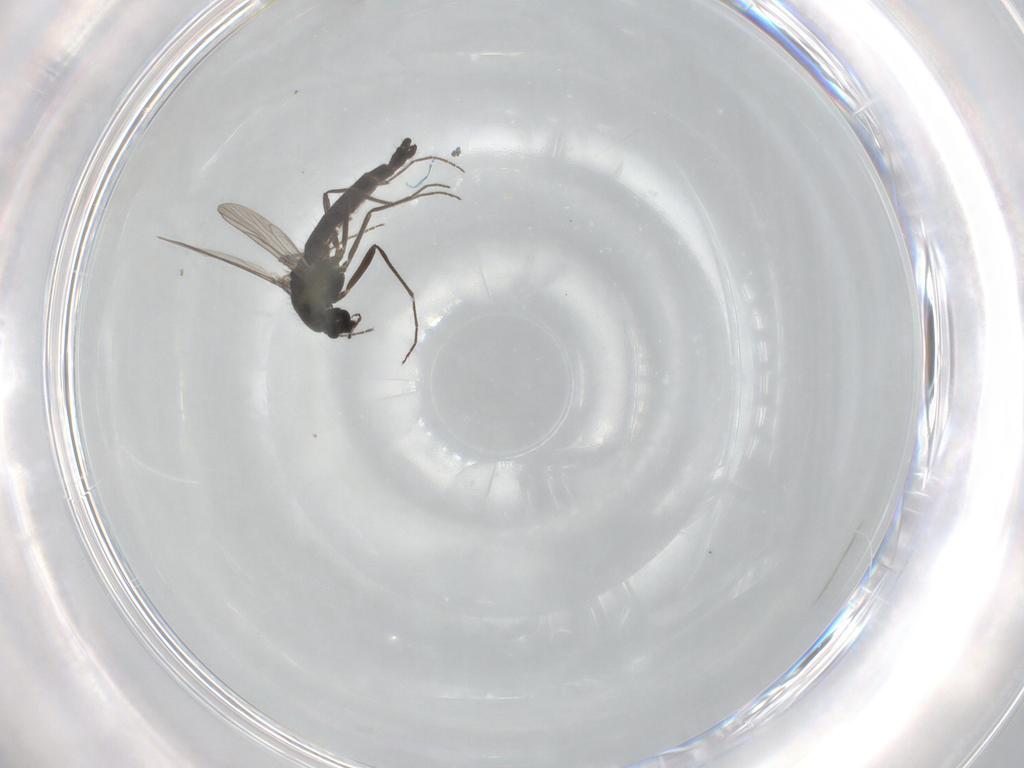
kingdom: Animalia
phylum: Arthropoda
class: Insecta
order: Diptera
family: Chironomidae
